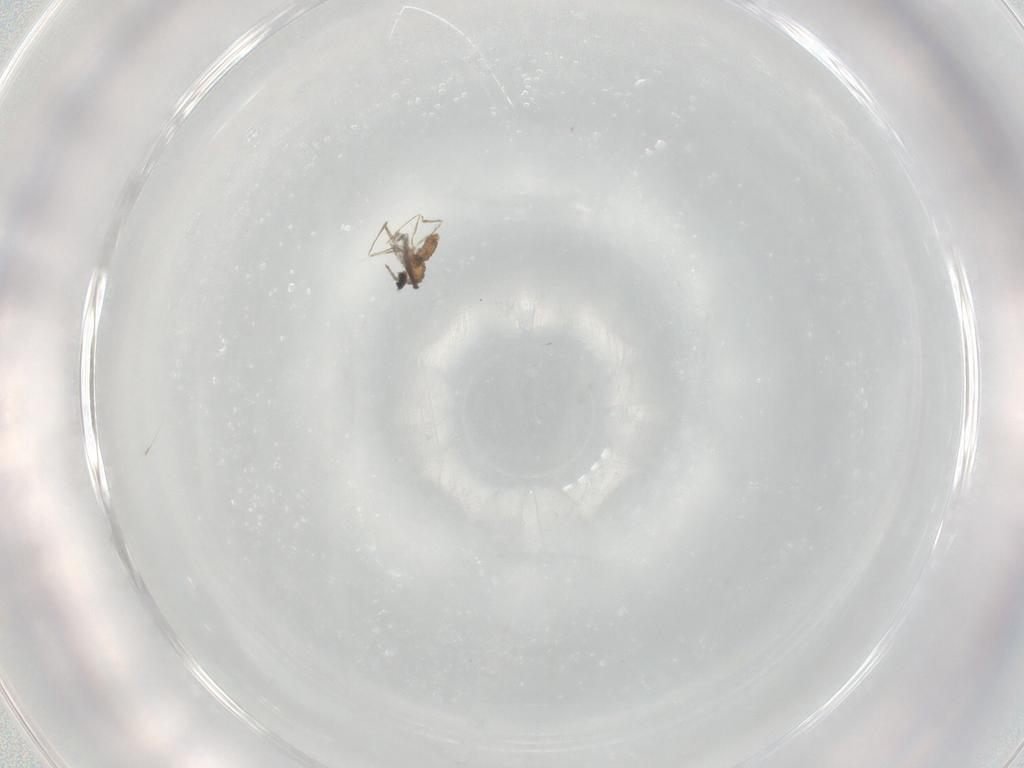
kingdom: Animalia
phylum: Arthropoda
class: Insecta
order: Diptera
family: Cecidomyiidae
